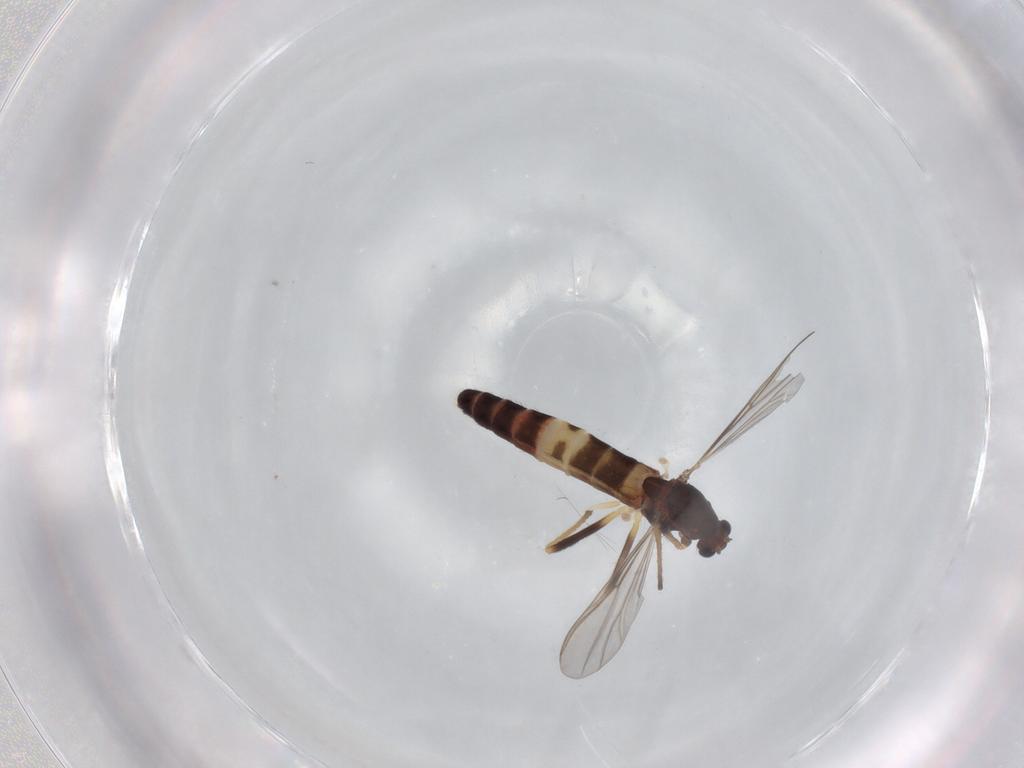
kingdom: Animalia
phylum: Arthropoda
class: Insecta
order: Diptera
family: Chironomidae
